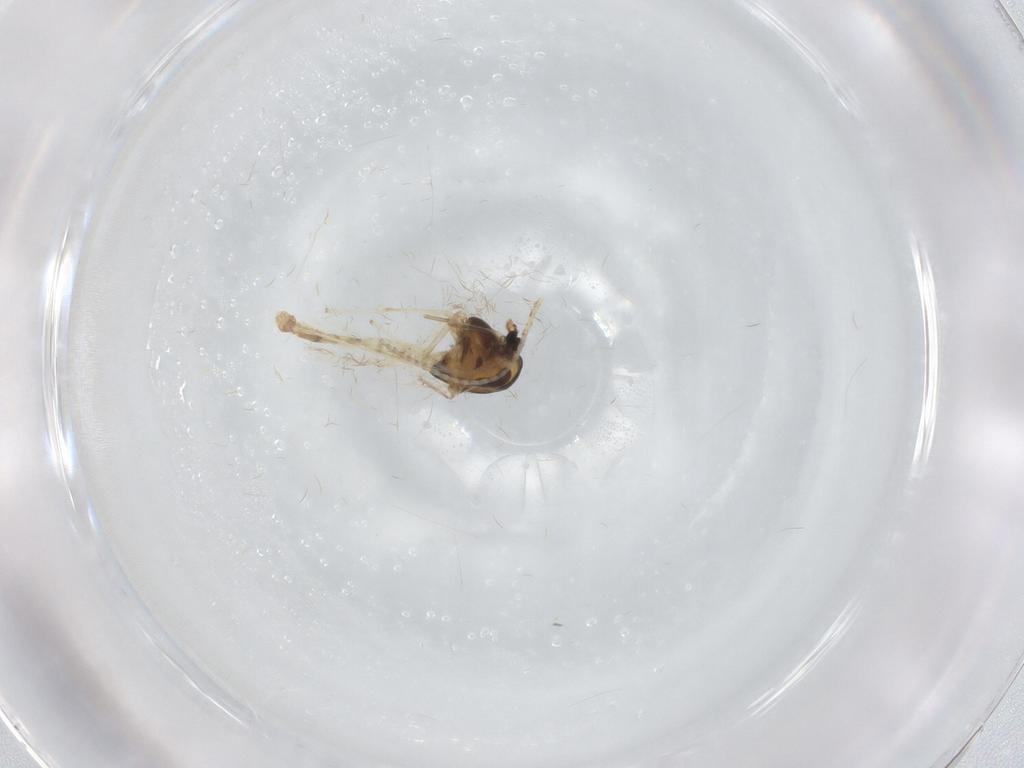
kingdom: Animalia
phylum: Arthropoda
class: Insecta
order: Diptera
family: Chironomidae
